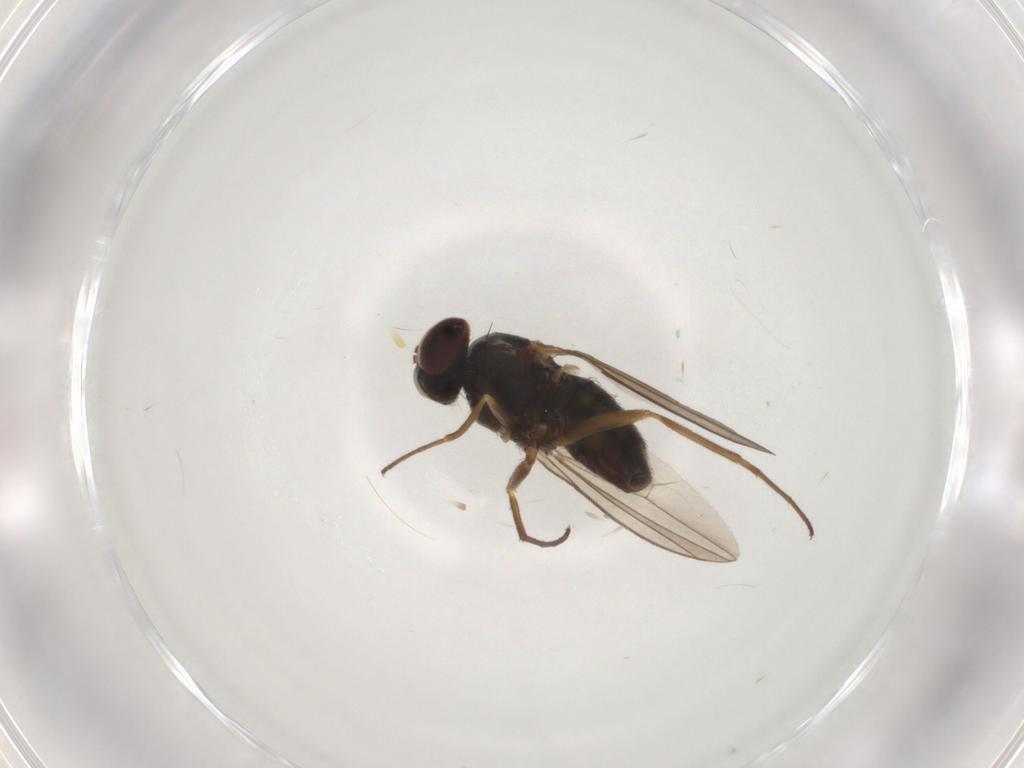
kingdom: Animalia
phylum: Arthropoda
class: Insecta
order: Diptera
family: Dolichopodidae
